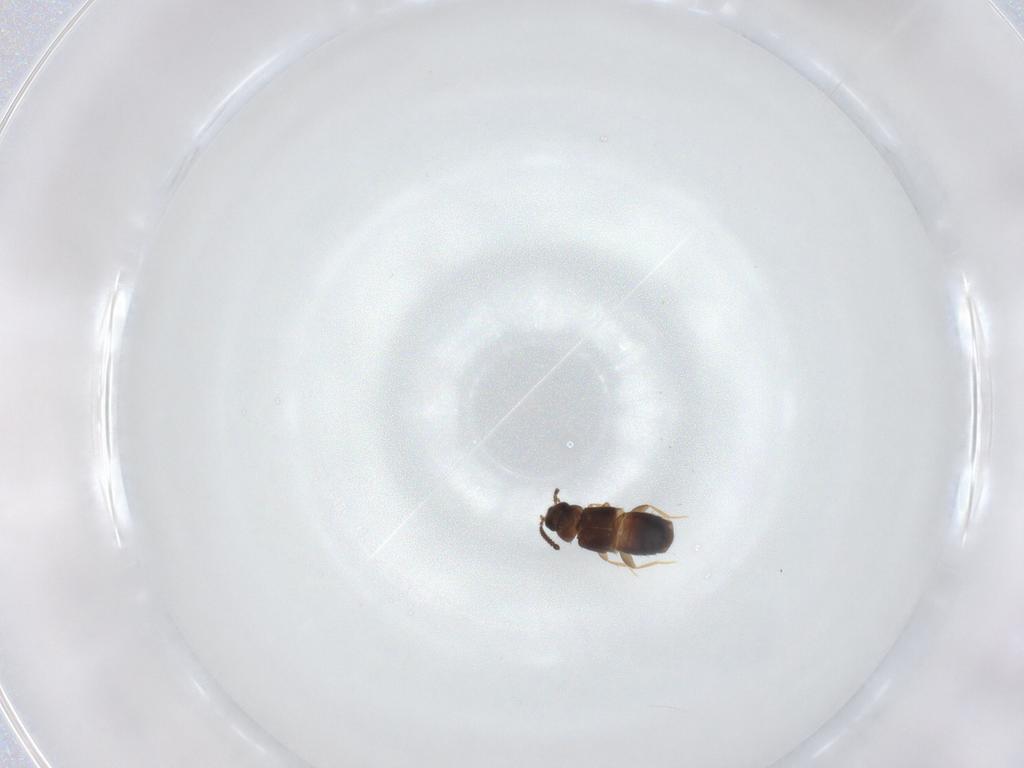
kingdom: Animalia
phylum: Arthropoda
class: Insecta
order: Coleoptera
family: Staphylinidae
